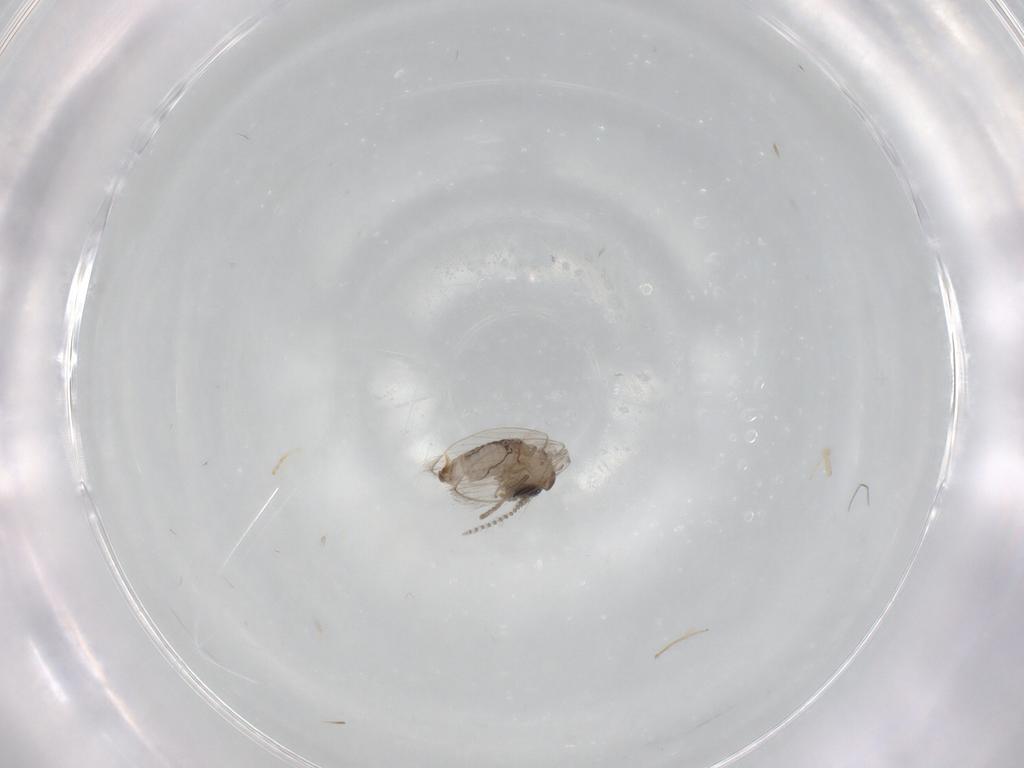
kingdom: Animalia
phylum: Arthropoda
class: Insecta
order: Diptera
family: Psychodidae
